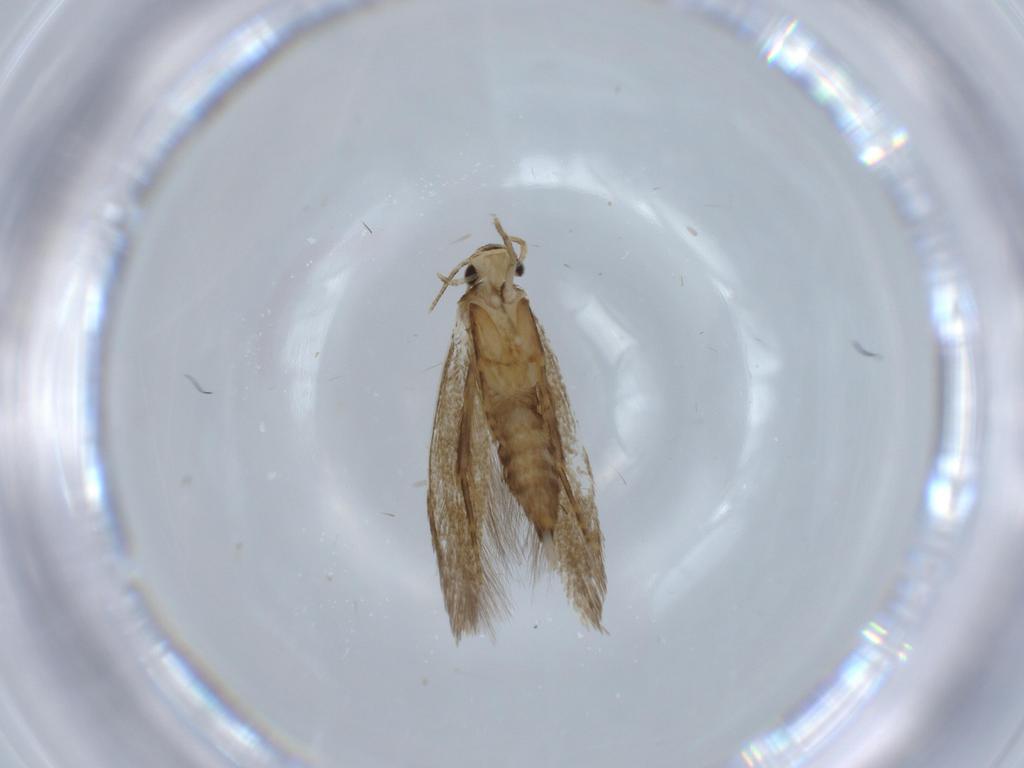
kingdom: Animalia
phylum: Arthropoda
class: Insecta
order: Lepidoptera
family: Tineidae
